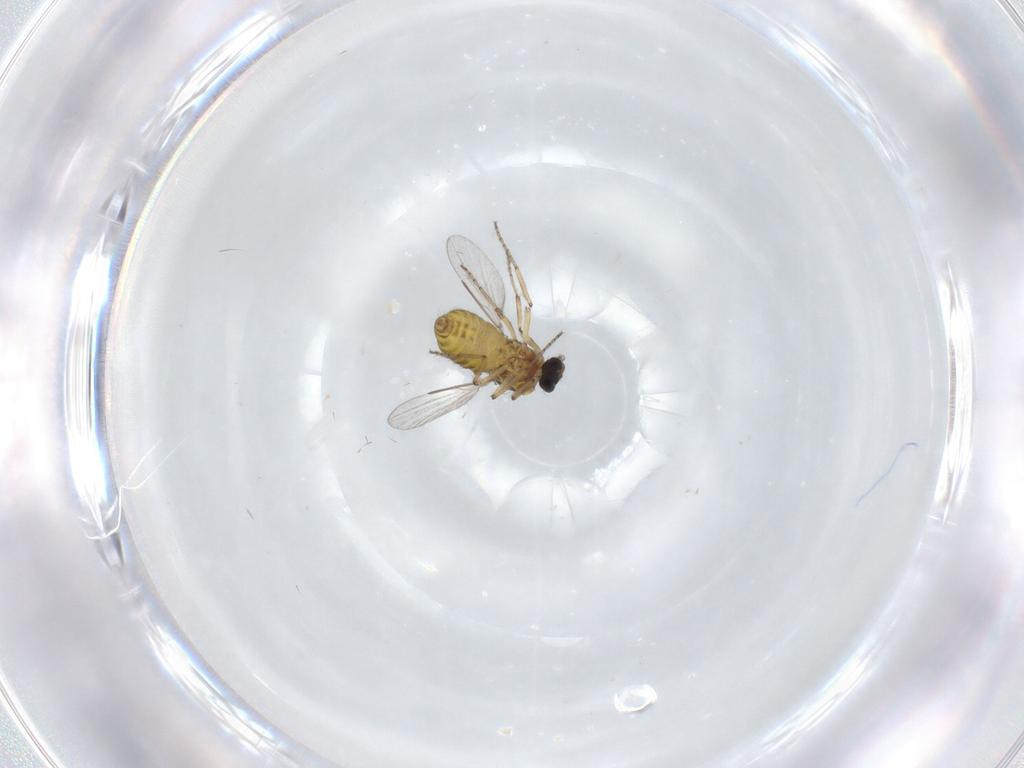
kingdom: Animalia
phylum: Arthropoda
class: Insecta
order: Diptera
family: Ceratopogonidae
